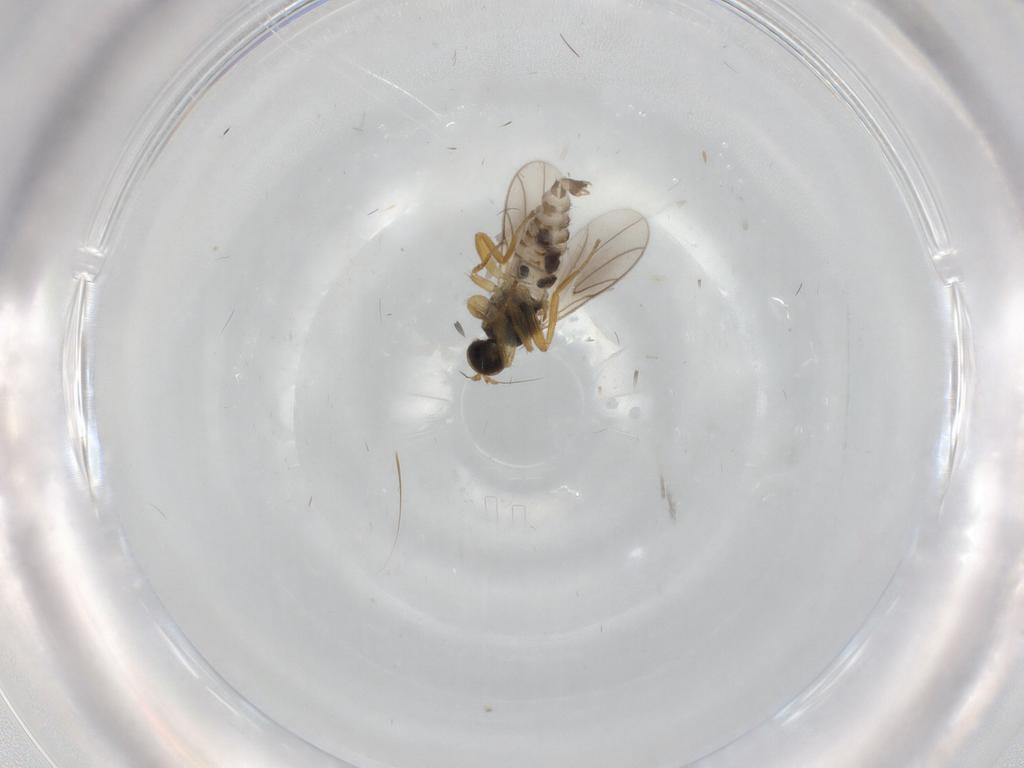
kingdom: Animalia
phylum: Arthropoda
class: Insecta
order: Diptera
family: Hybotidae
